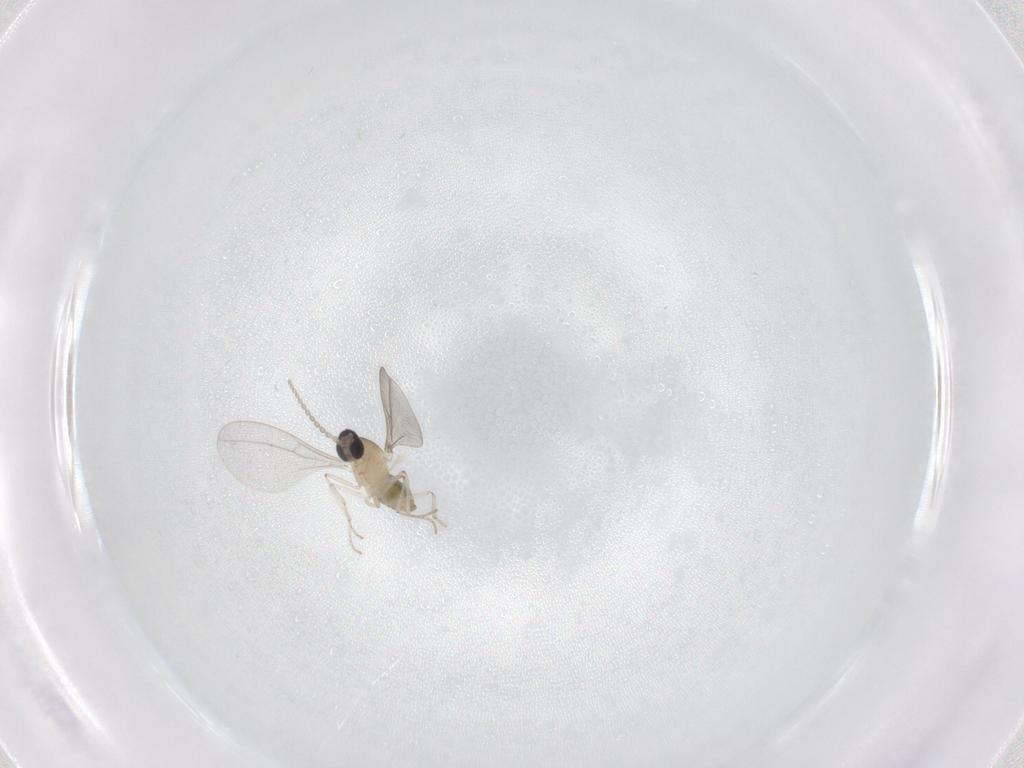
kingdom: Animalia
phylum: Arthropoda
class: Insecta
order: Diptera
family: Cecidomyiidae
